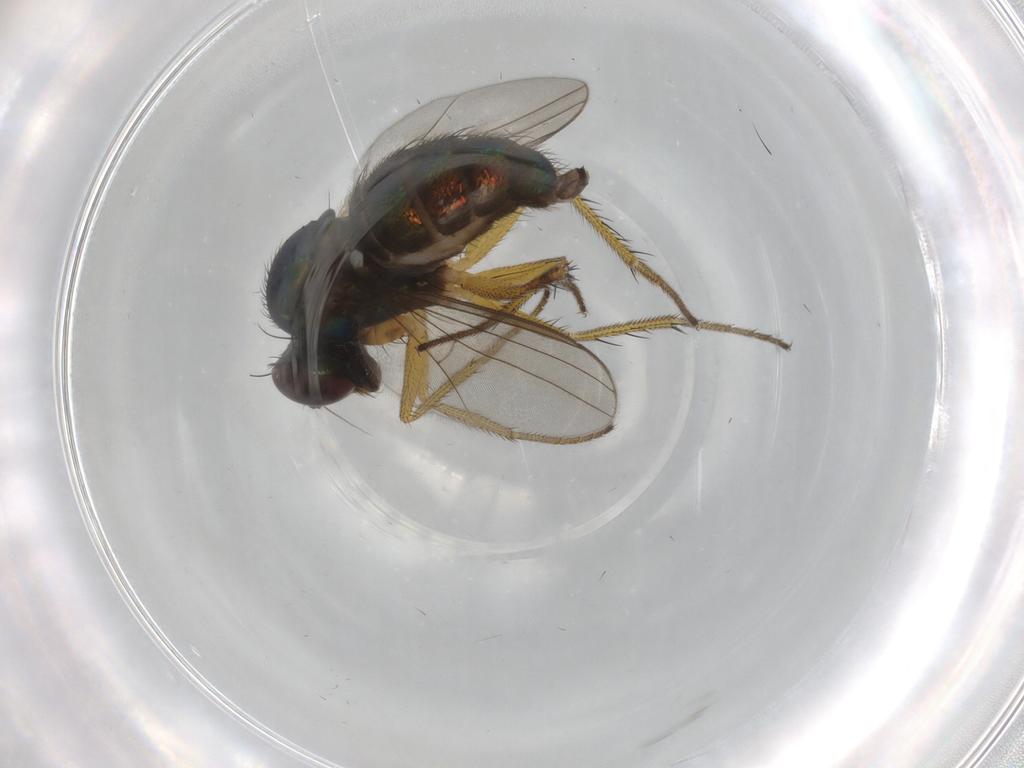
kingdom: Animalia
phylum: Arthropoda
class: Insecta
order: Diptera
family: Dolichopodidae
